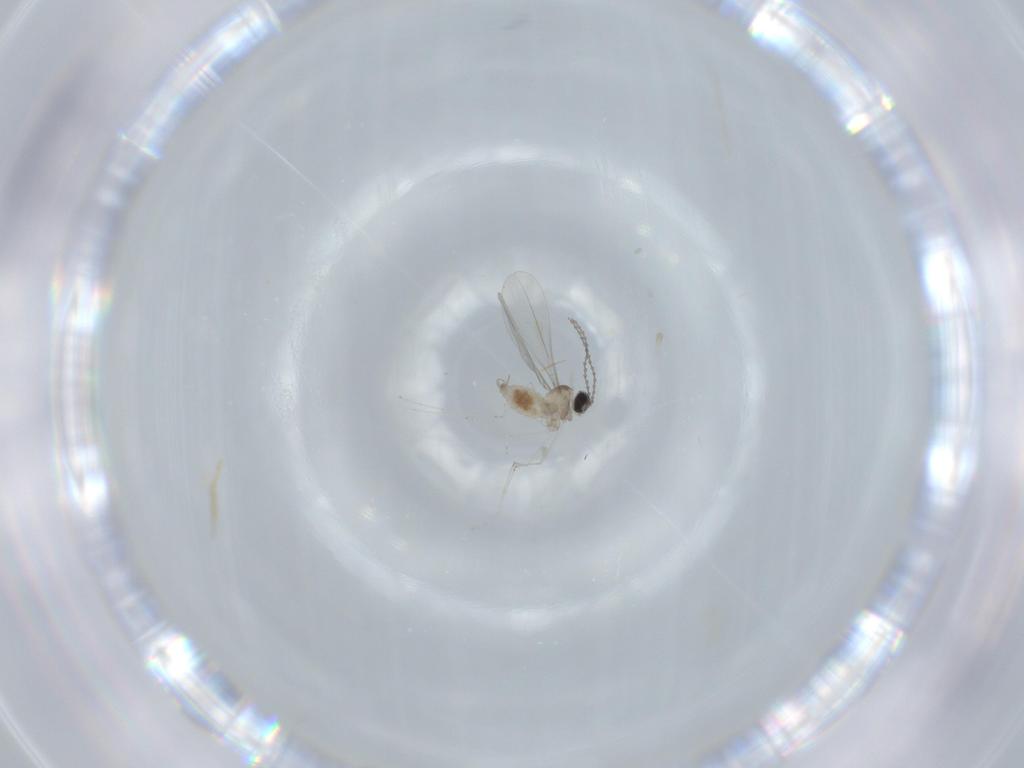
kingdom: Animalia
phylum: Arthropoda
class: Insecta
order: Diptera
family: Cecidomyiidae
